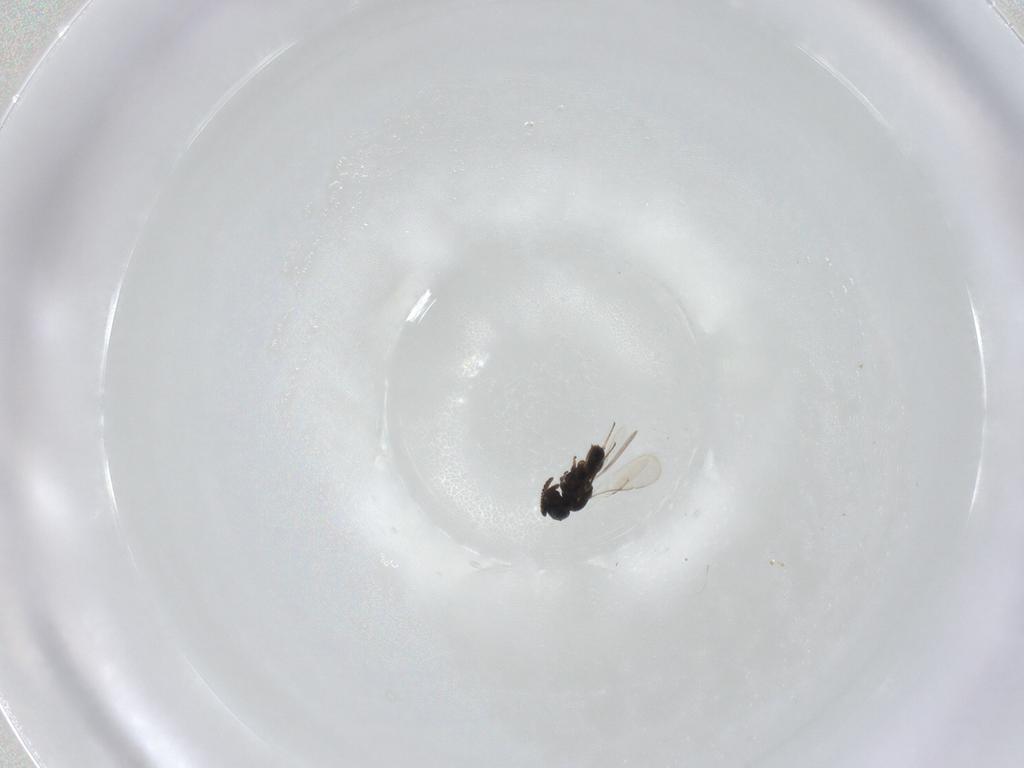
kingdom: Animalia
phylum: Arthropoda
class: Insecta
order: Hymenoptera
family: Scelionidae
